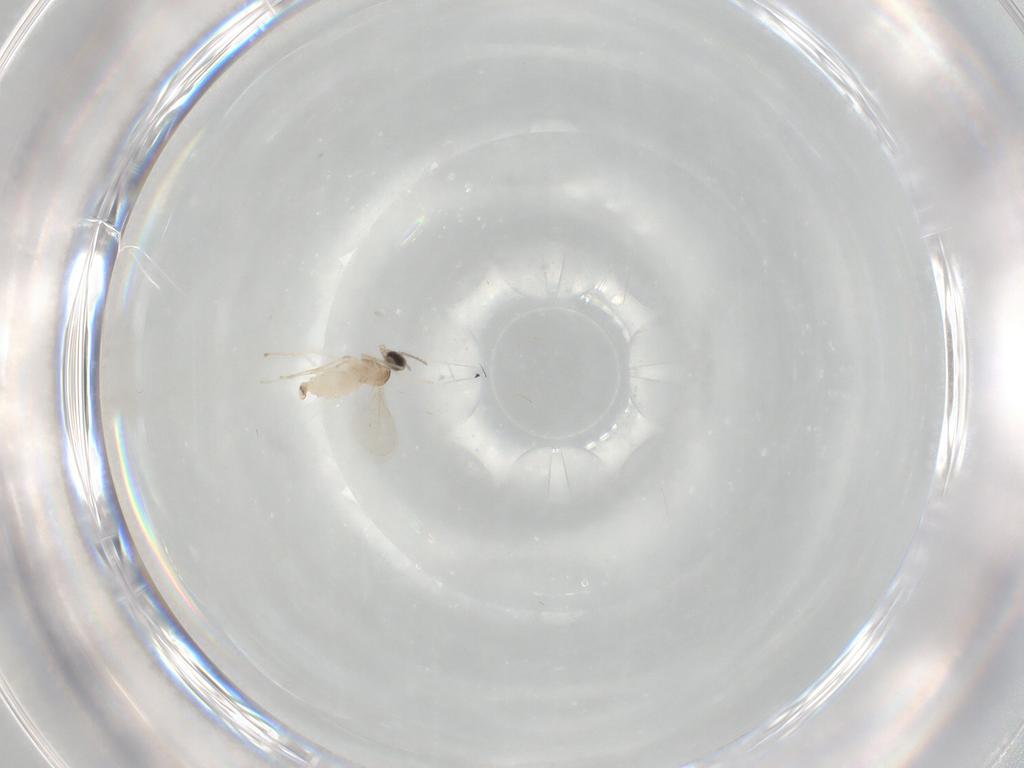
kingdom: Animalia
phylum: Arthropoda
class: Insecta
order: Diptera
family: Cecidomyiidae
